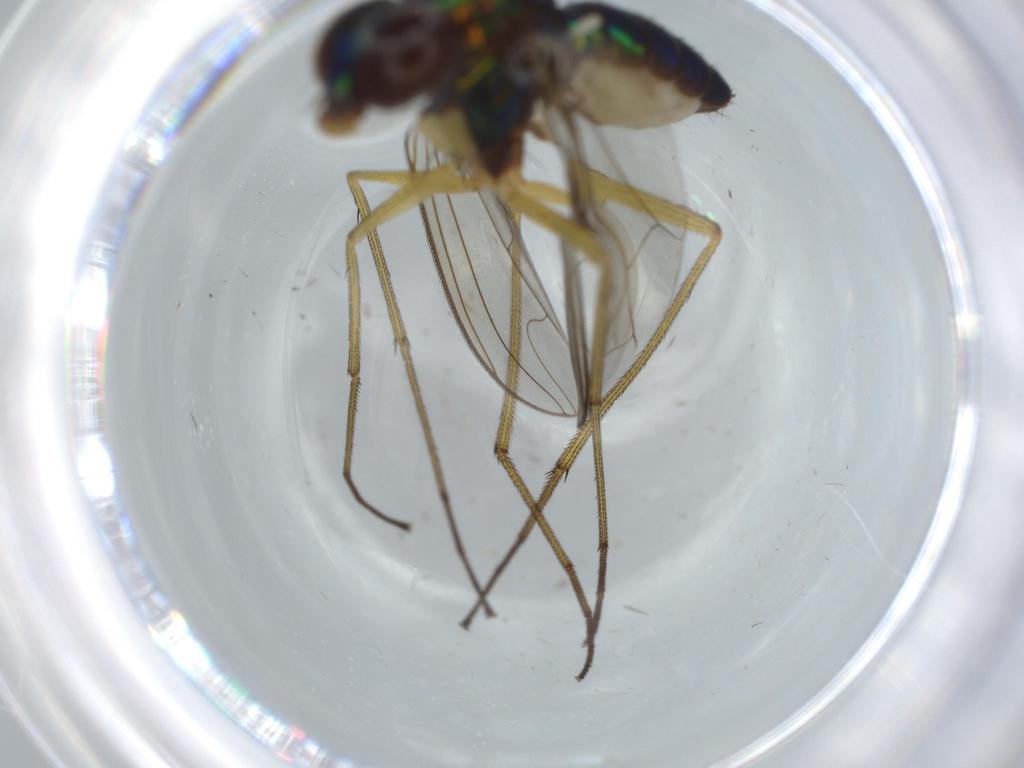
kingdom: Animalia
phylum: Arthropoda
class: Insecta
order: Diptera
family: Dolichopodidae
